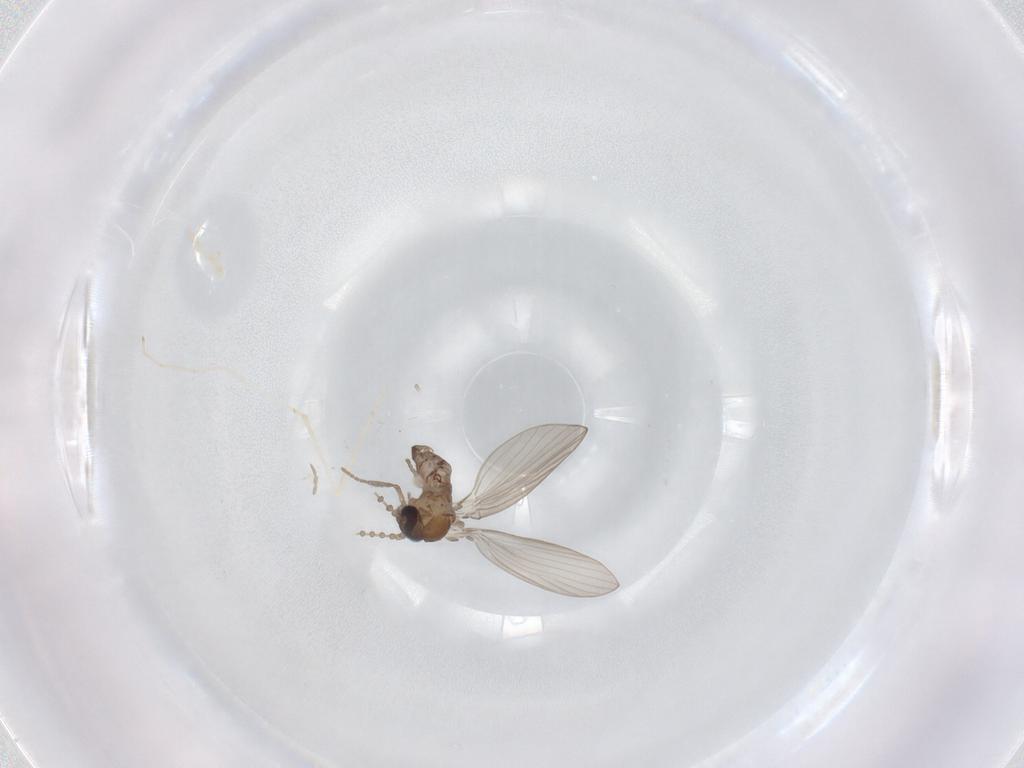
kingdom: Animalia
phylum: Arthropoda
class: Insecta
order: Diptera
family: Psychodidae
